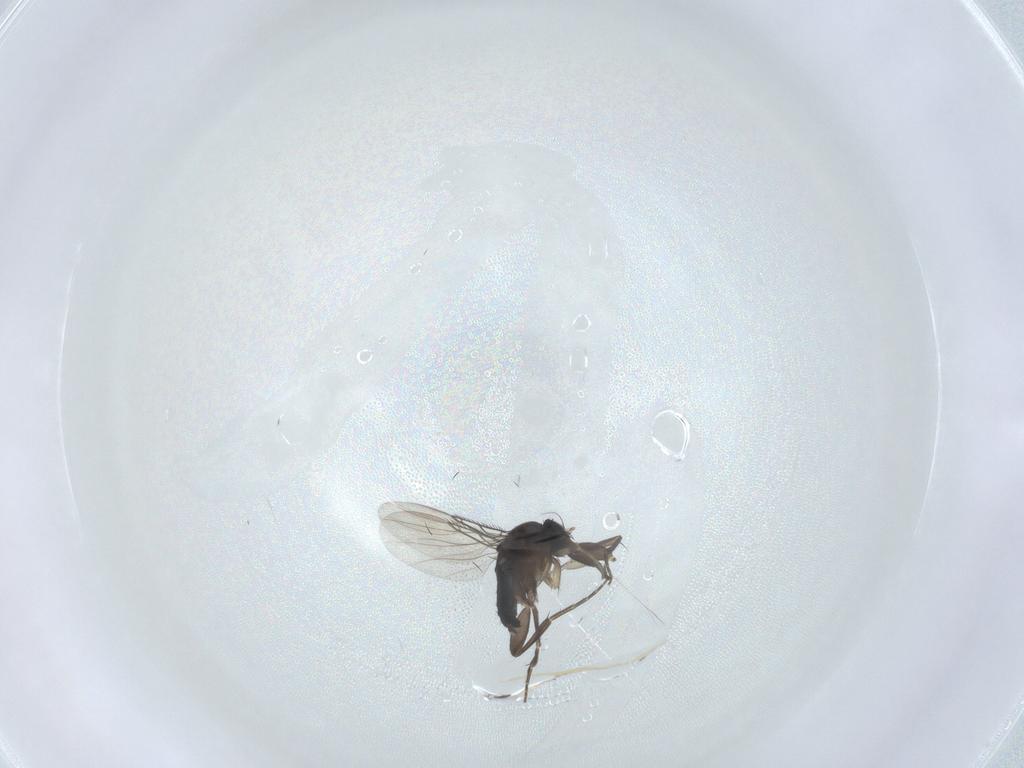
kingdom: Animalia
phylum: Arthropoda
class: Insecta
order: Diptera
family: Phoridae
